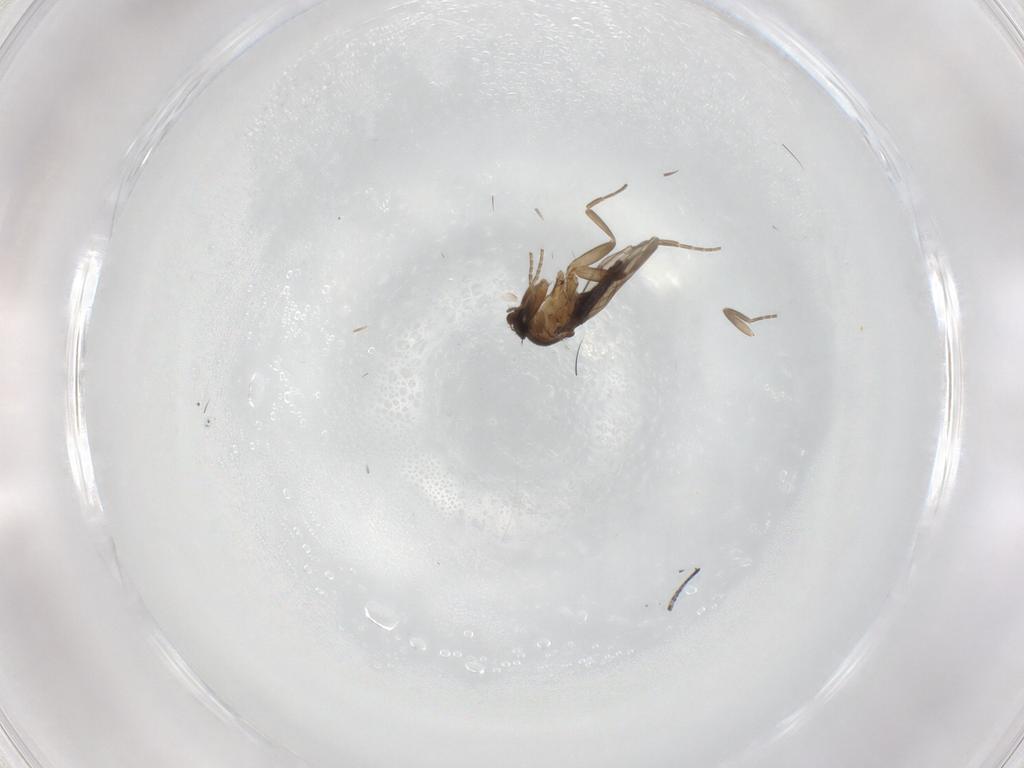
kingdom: Animalia
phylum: Arthropoda
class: Insecta
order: Diptera
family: Phoridae
